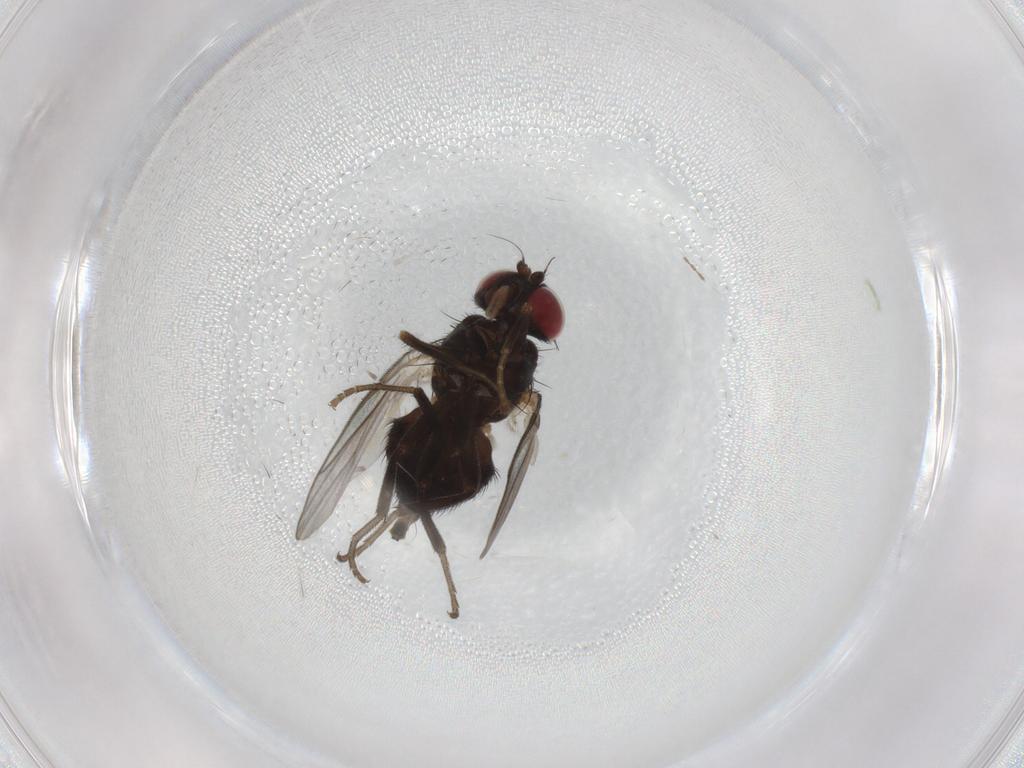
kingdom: Animalia
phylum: Arthropoda
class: Insecta
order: Diptera
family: Agromyzidae
